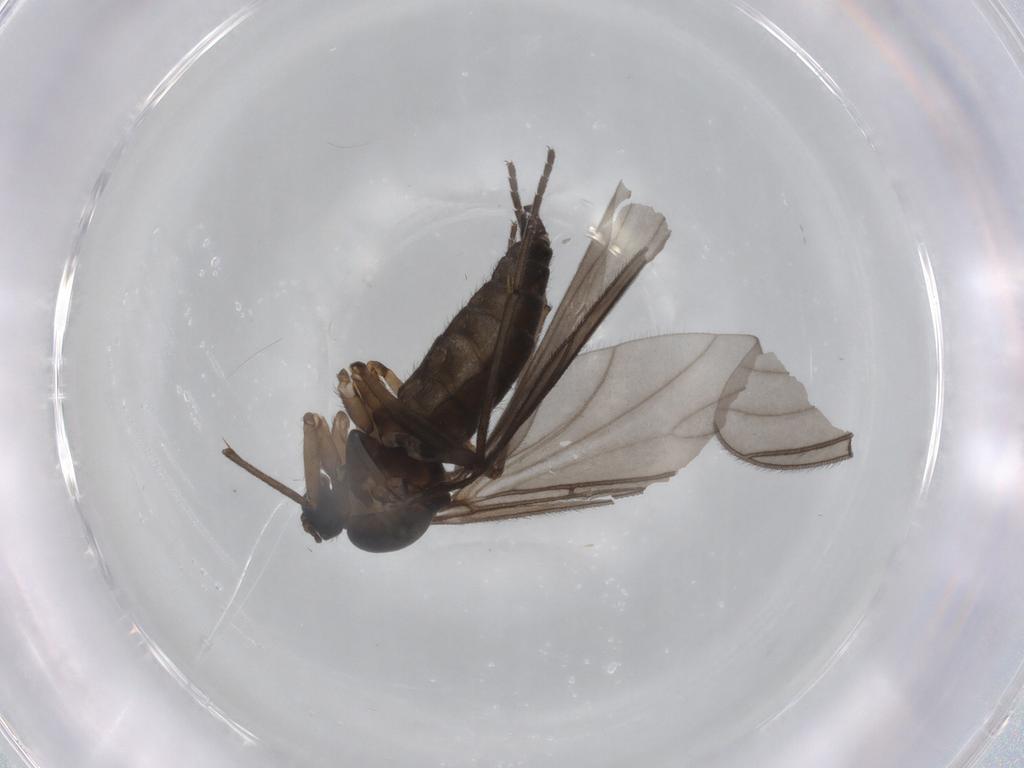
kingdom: Animalia
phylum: Arthropoda
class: Insecta
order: Diptera
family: Sciaridae
